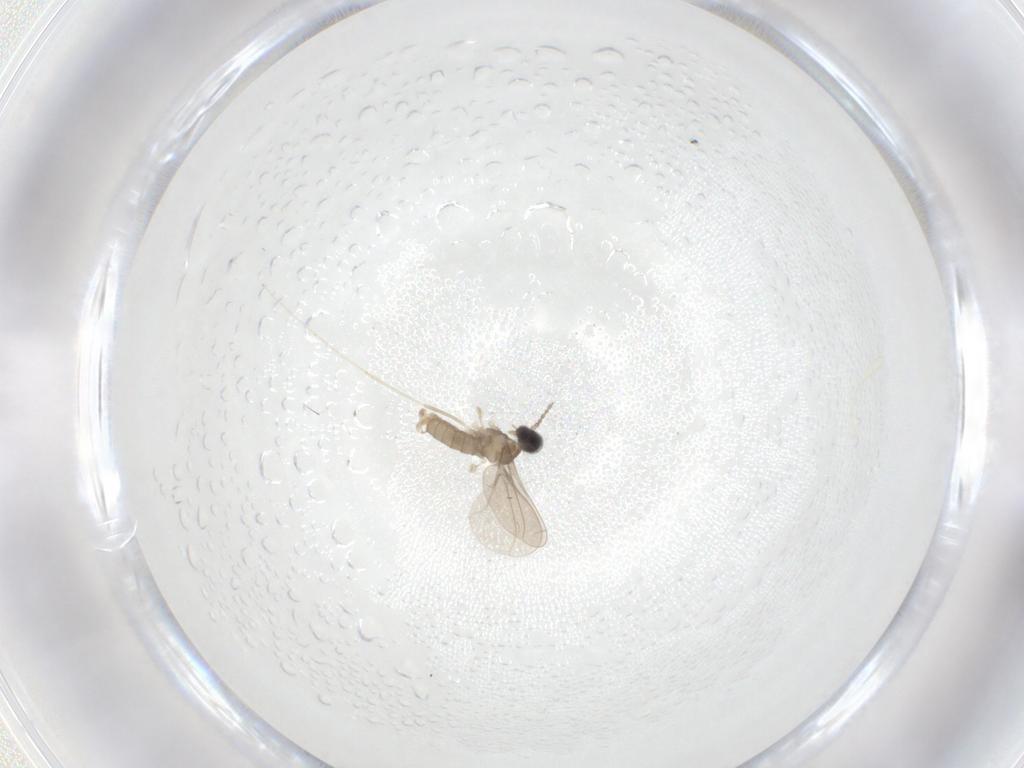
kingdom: Animalia
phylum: Arthropoda
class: Insecta
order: Diptera
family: Cecidomyiidae
